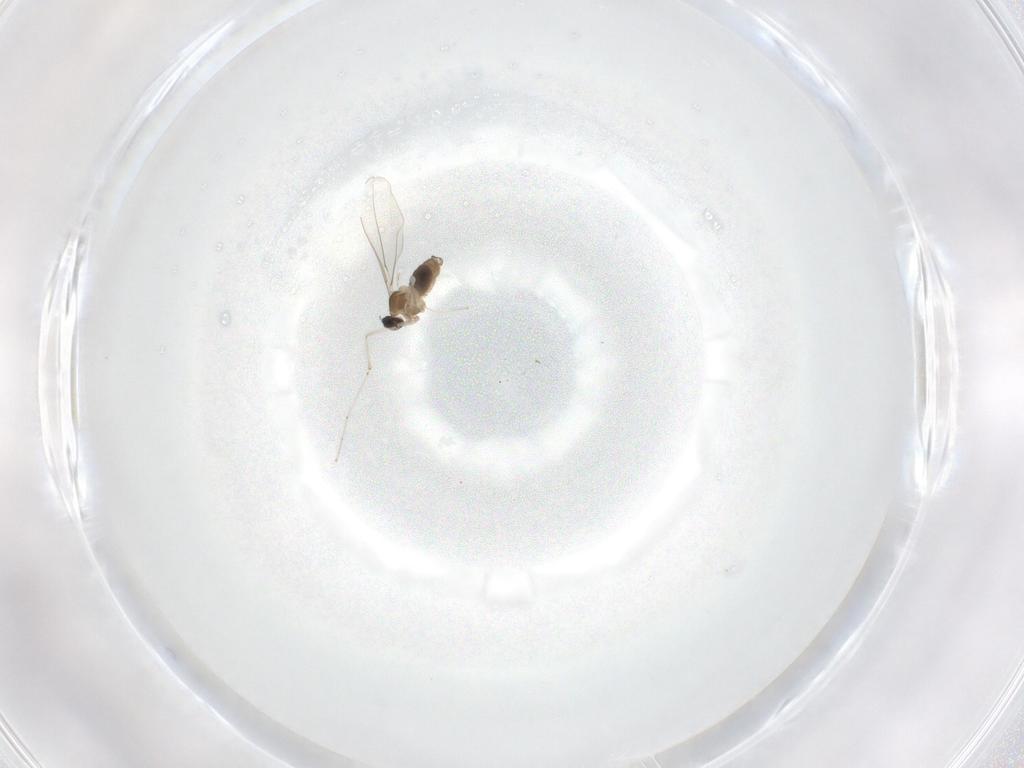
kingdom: Animalia
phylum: Arthropoda
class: Insecta
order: Diptera
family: Cecidomyiidae
